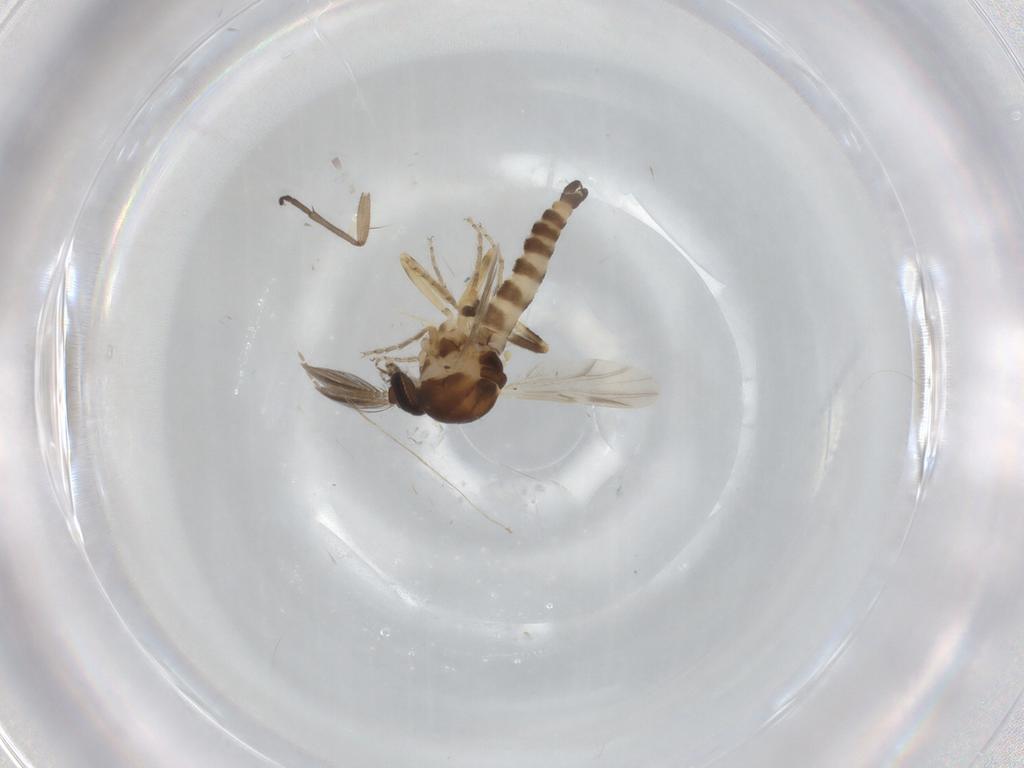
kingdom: Animalia
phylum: Arthropoda
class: Insecta
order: Diptera
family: Ceratopogonidae
